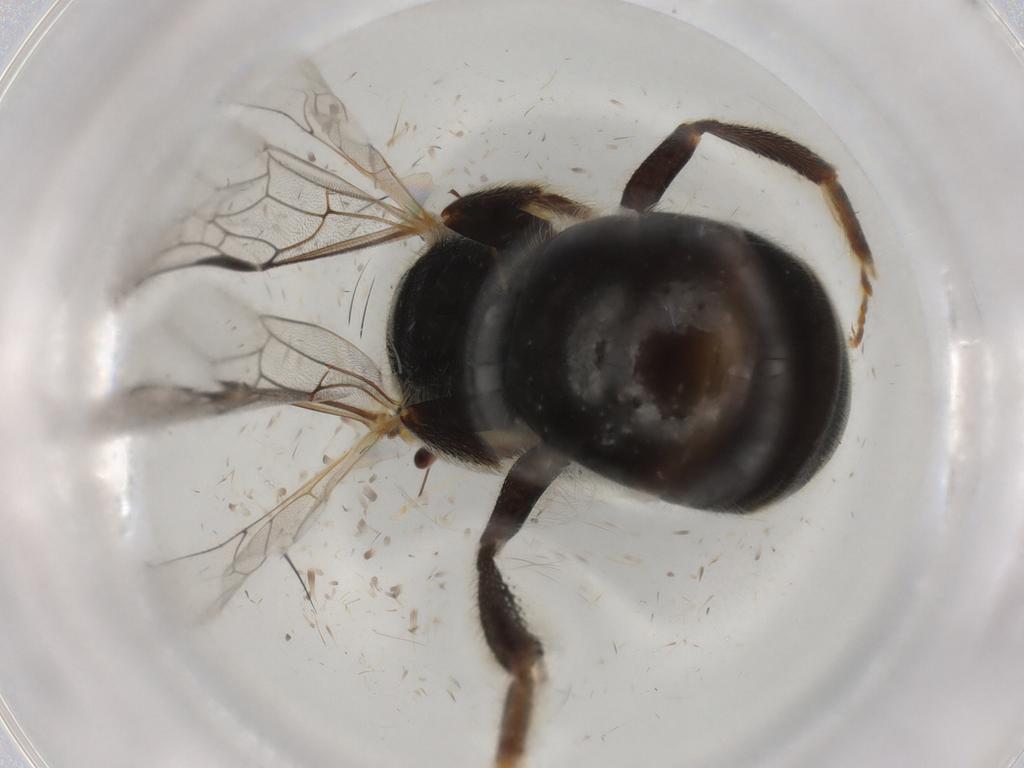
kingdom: Animalia
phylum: Arthropoda
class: Insecta
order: Hymenoptera
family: Halictidae
